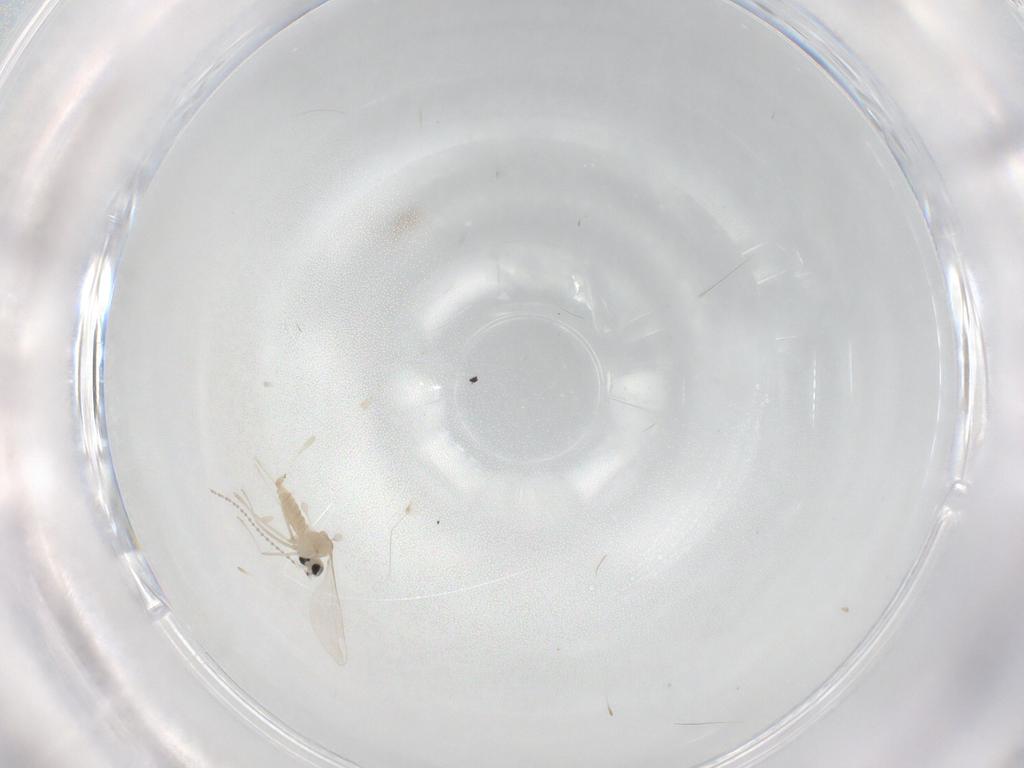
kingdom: Animalia
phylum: Arthropoda
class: Insecta
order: Diptera
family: Cecidomyiidae
